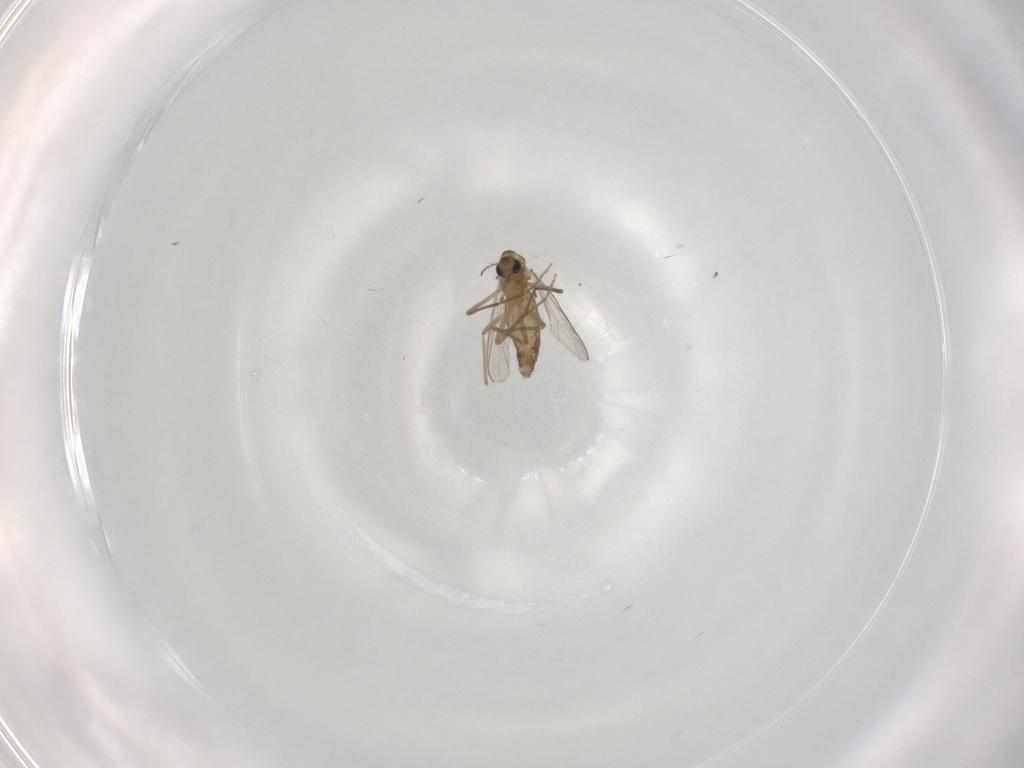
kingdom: Animalia
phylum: Arthropoda
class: Insecta
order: Diptera
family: Chironomidae
